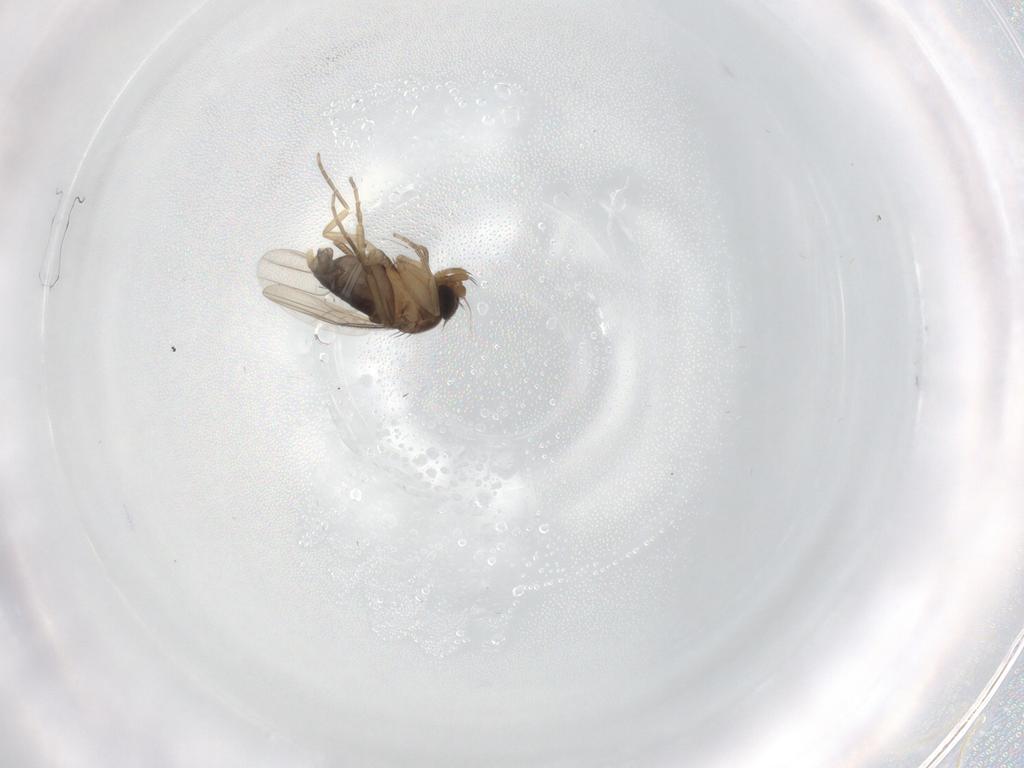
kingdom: Animalia
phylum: Arthropoda
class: Insecta
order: Diptera
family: Phoridae
